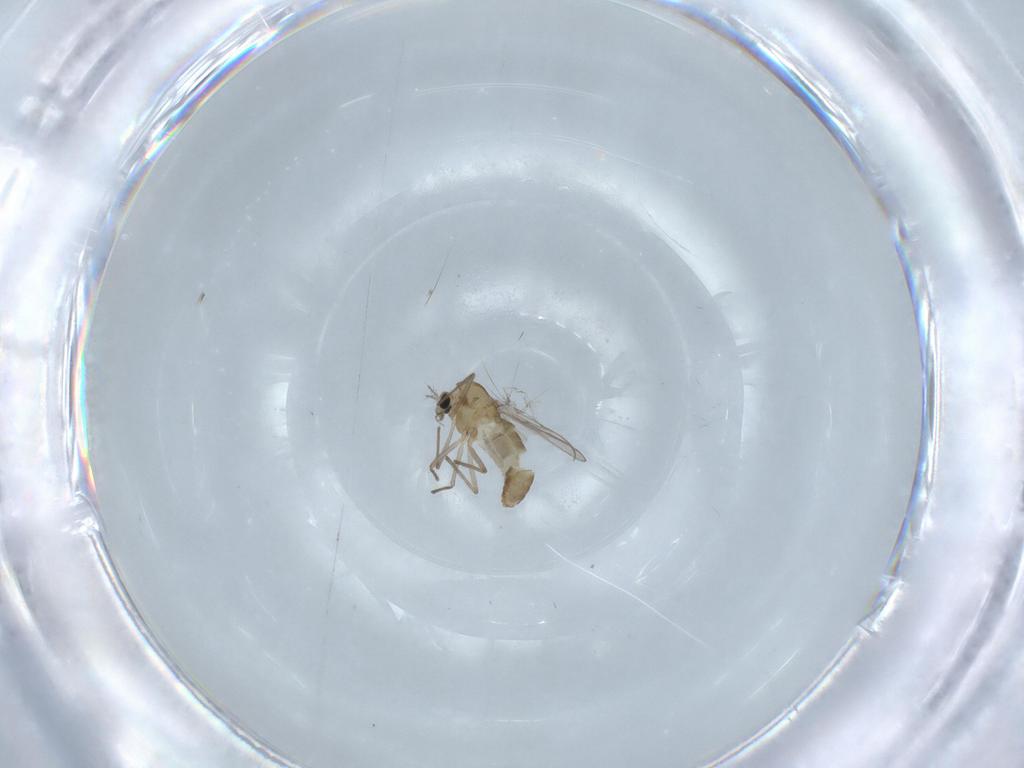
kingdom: Animalia
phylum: Arthropoda
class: Insecta
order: Diptera
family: Chironomidae
